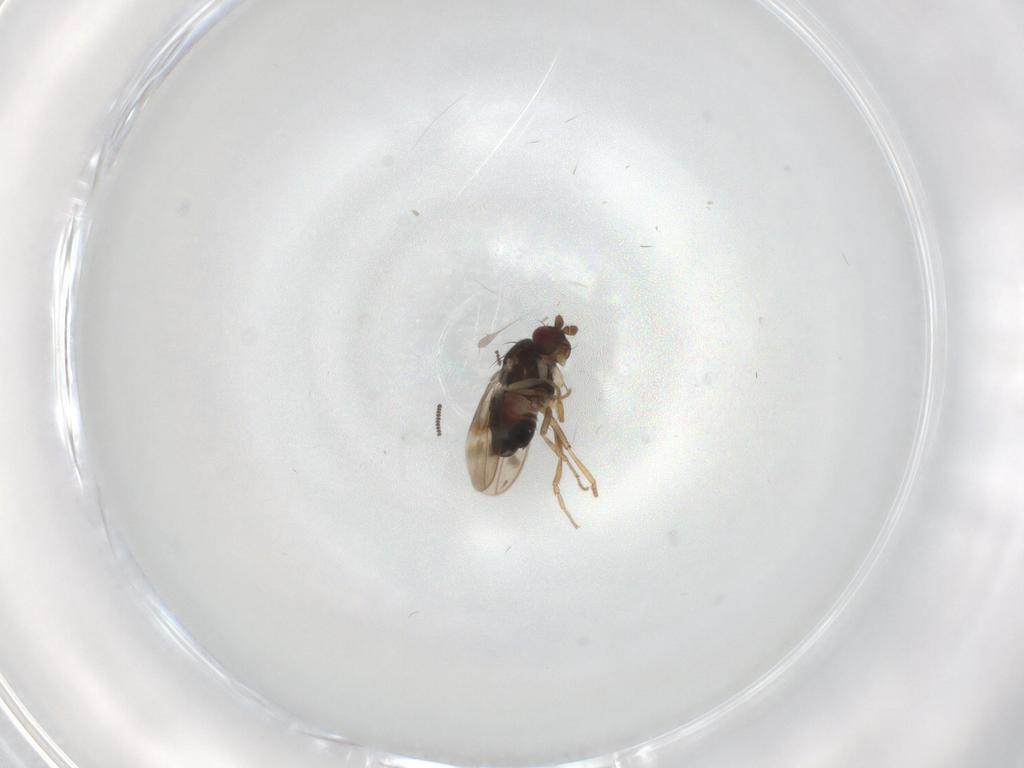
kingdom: Animalia
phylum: Arthropoda
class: Insecta
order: Diptera
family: Sphaeroceridae
